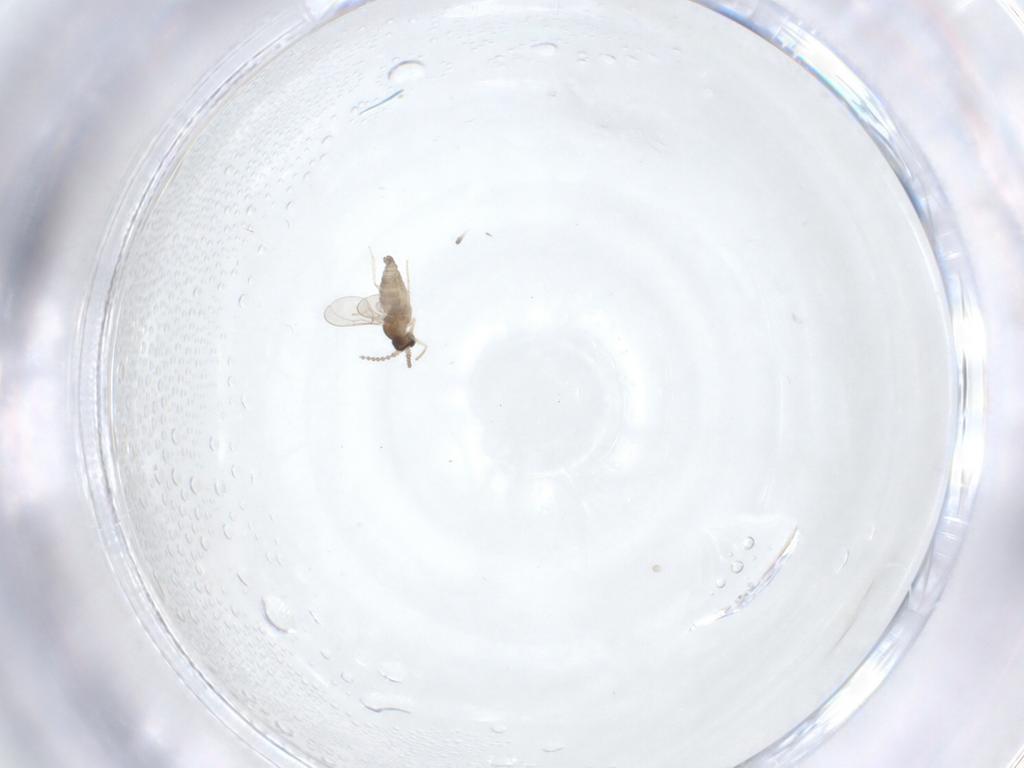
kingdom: Animalia
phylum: Arthropoda
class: Insecta
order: Diptera
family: Cecidomyiidae
